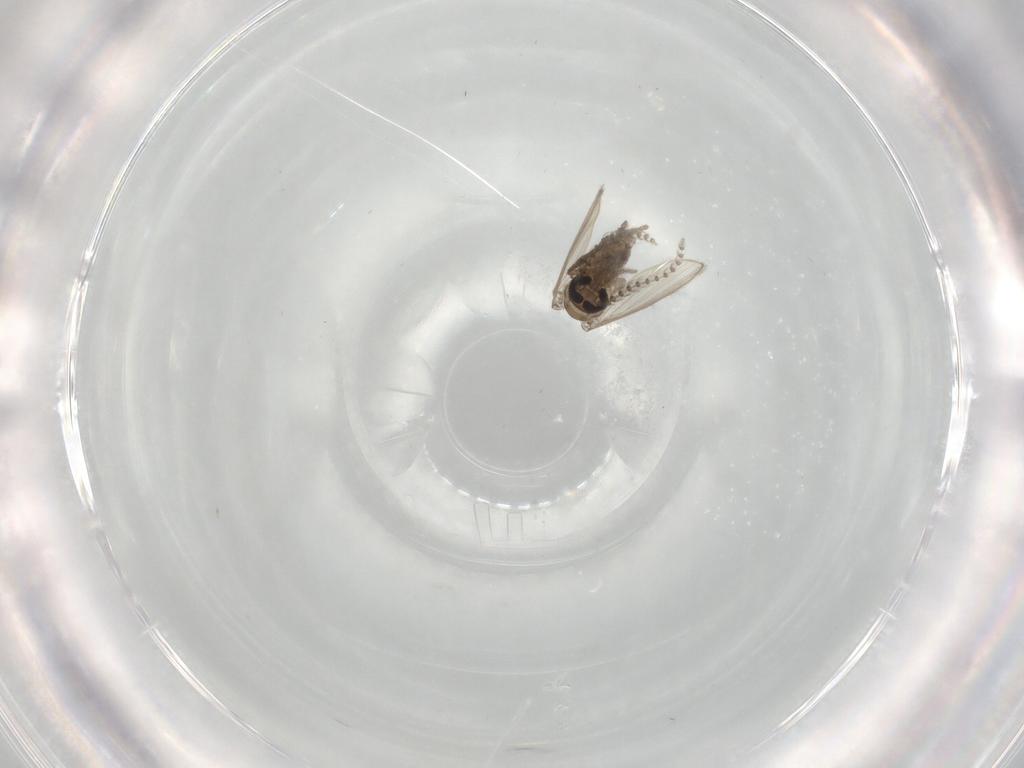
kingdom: Animalia
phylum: Arthropoda
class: Insecta
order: Diptera
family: Psychodidae
